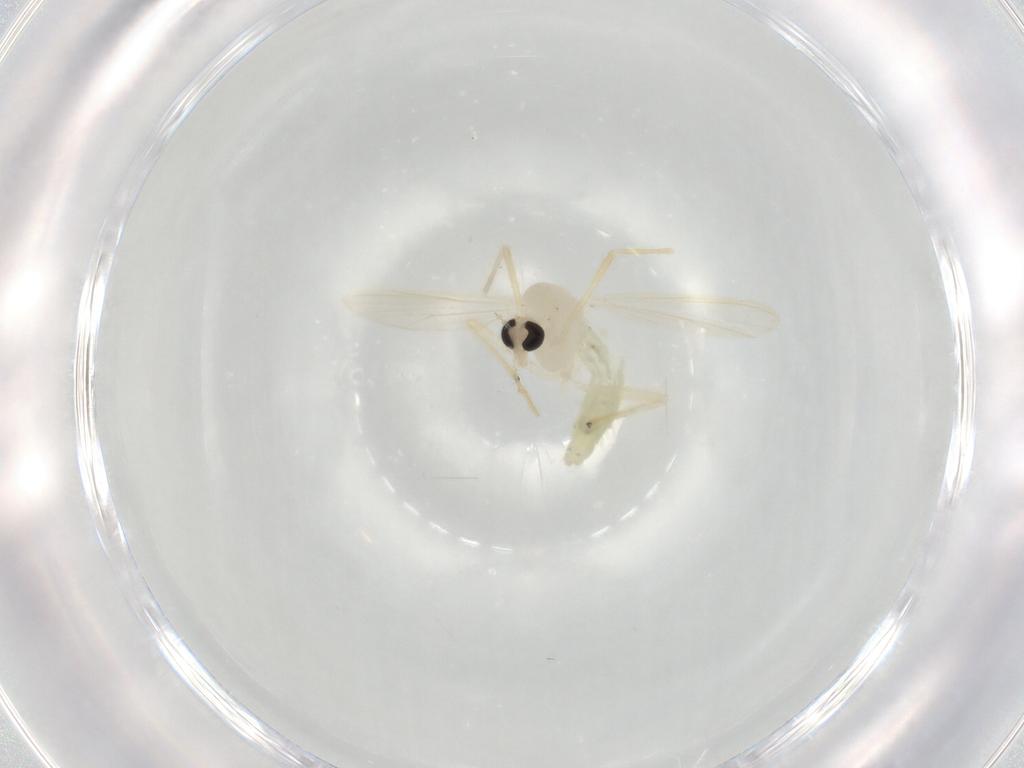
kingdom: Animalia
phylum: Arthropoda
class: Insecta
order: Diptera
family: Chironomidae
